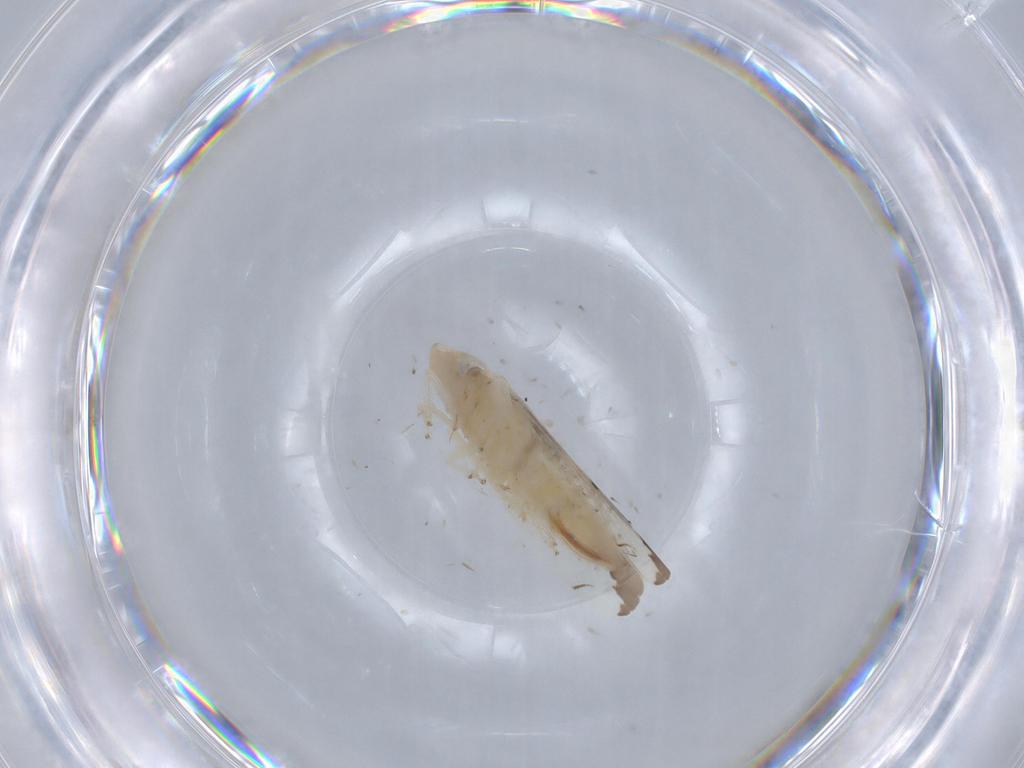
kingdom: Animalia
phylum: Arthropoda
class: Insecta
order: Hemiptera
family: Cicadellidae
